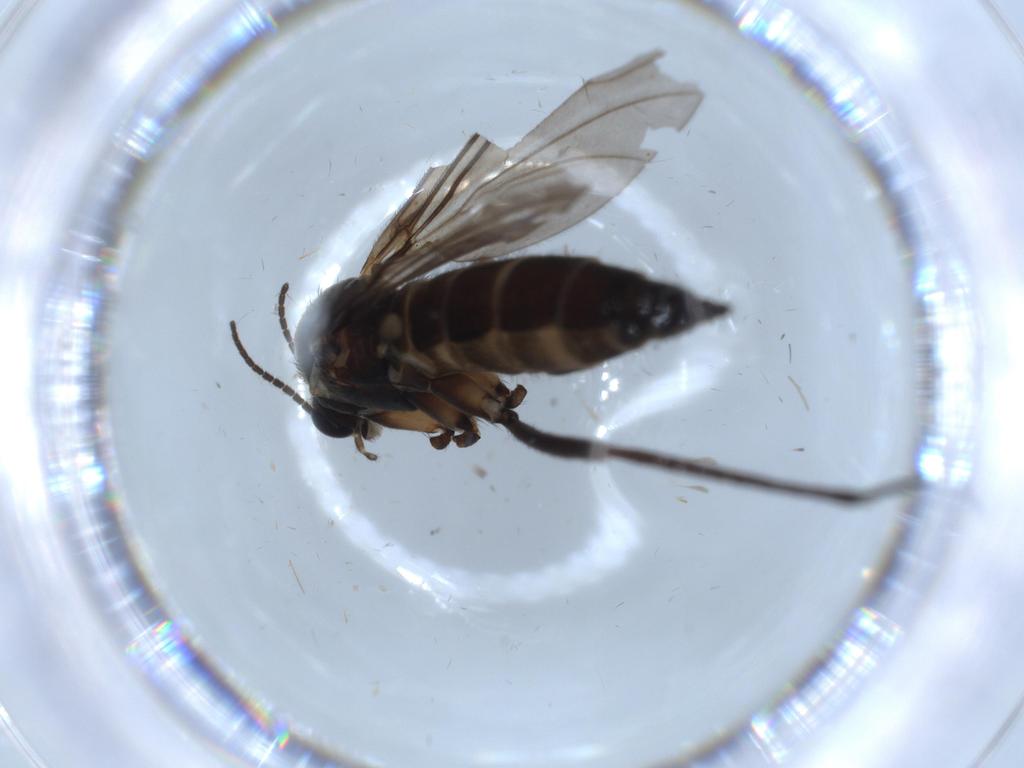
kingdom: Animalia
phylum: Arthropoda
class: Insecta
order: Diptera
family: Sciaridae
